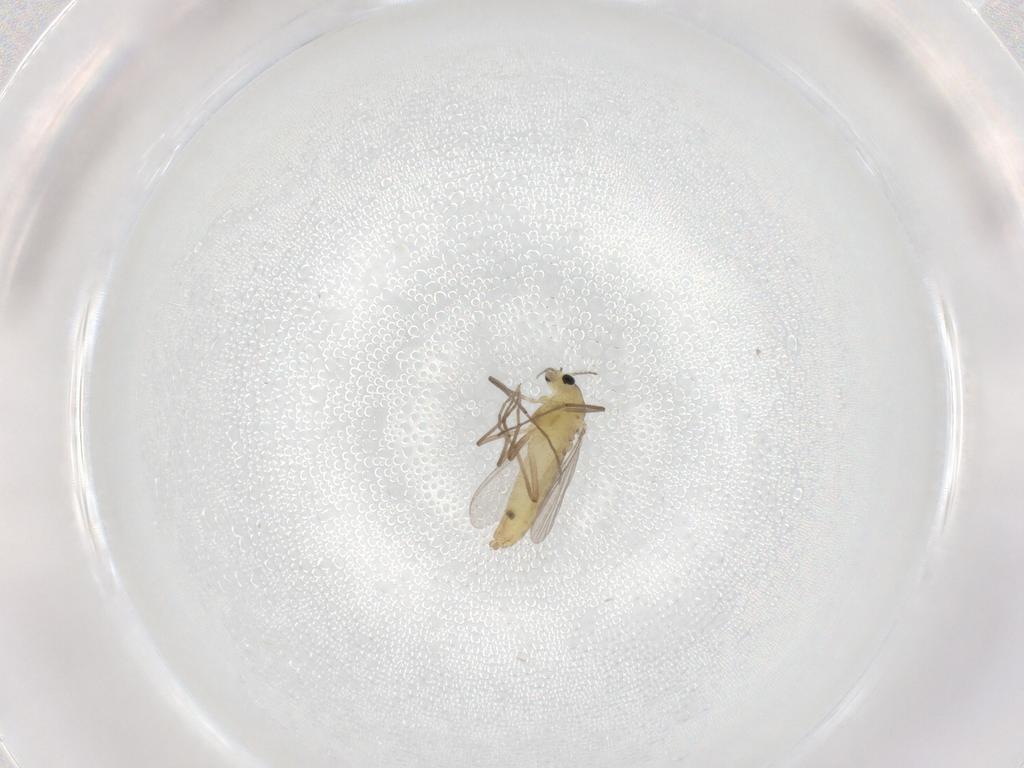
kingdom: Animalia
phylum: Arthropoda
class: Insecta
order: Diptera
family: Chironomidae
